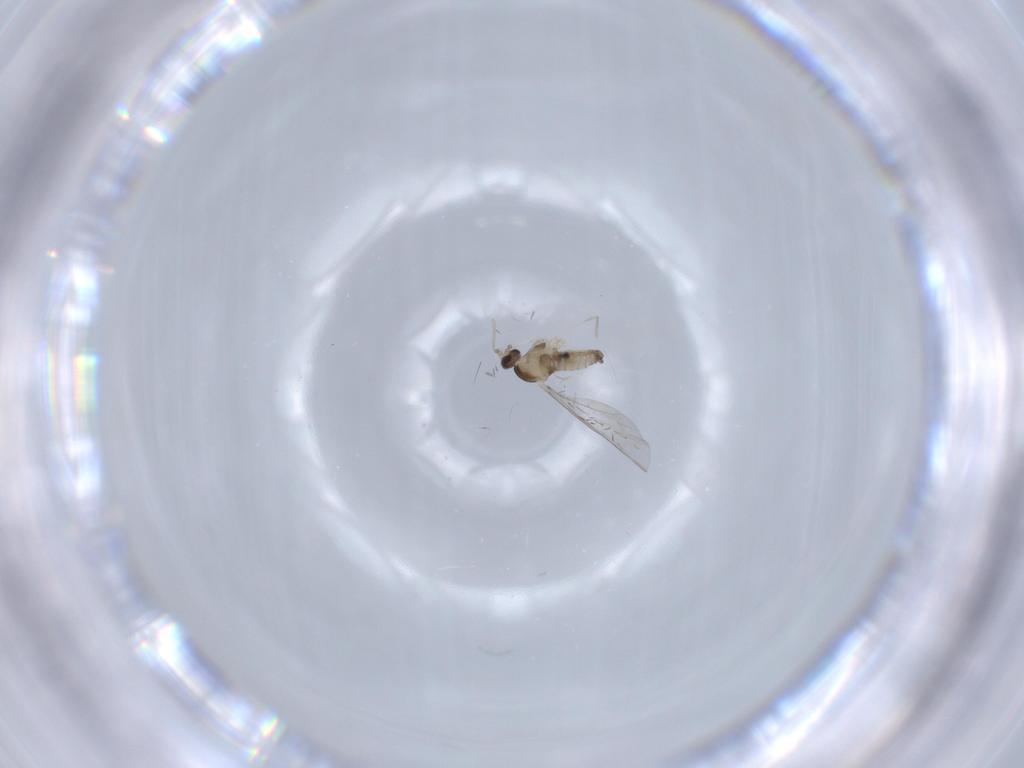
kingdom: Animalia
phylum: Arthropoda
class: Insecta
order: Diptera
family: Cecidomyiidae
